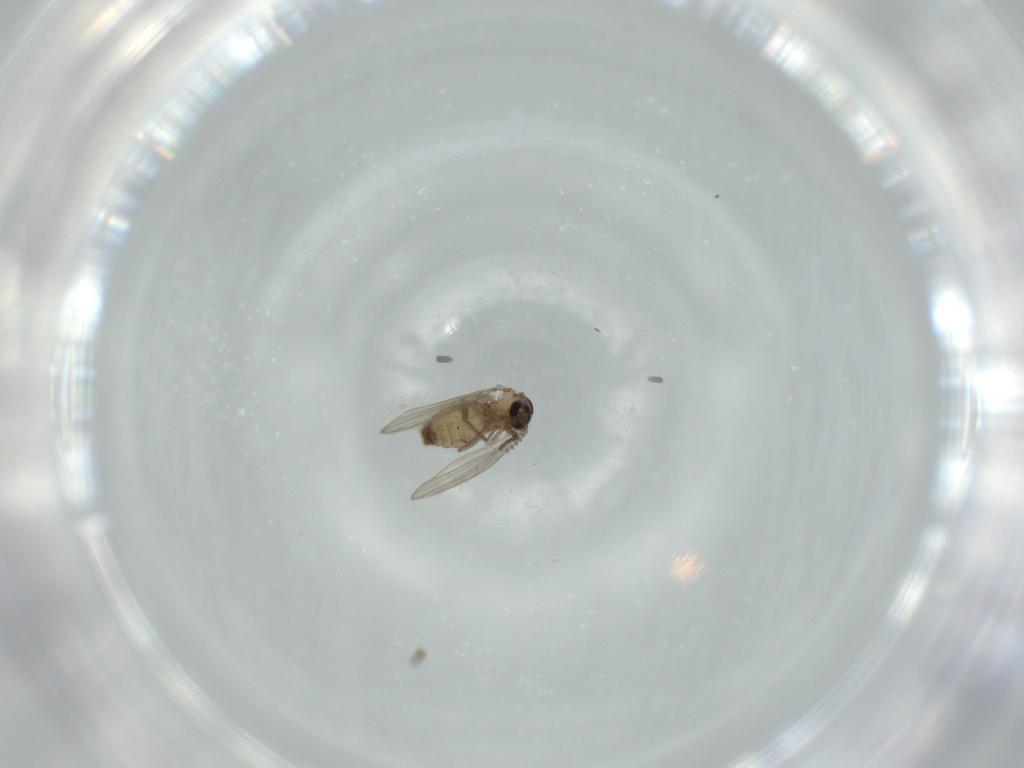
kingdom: Animalia
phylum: Arthropoda
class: Insecta
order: Diptera
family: Psychodidae
